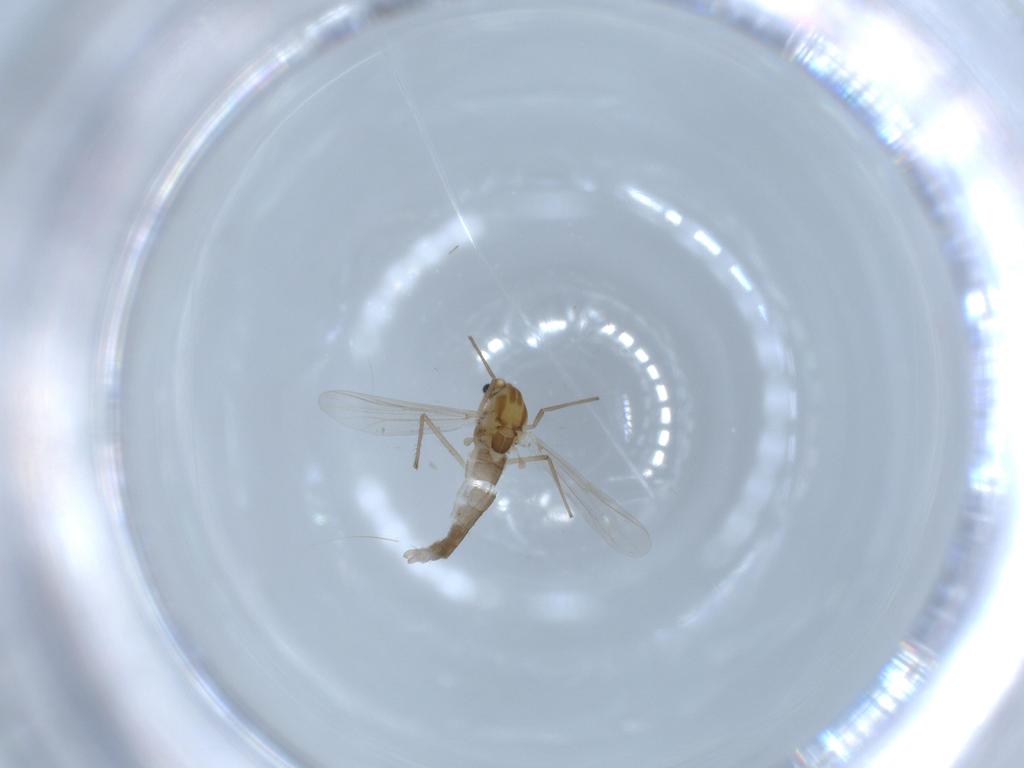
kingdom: Animalia
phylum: Arthropoda
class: Insecta
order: Diptera
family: Chironomidae
